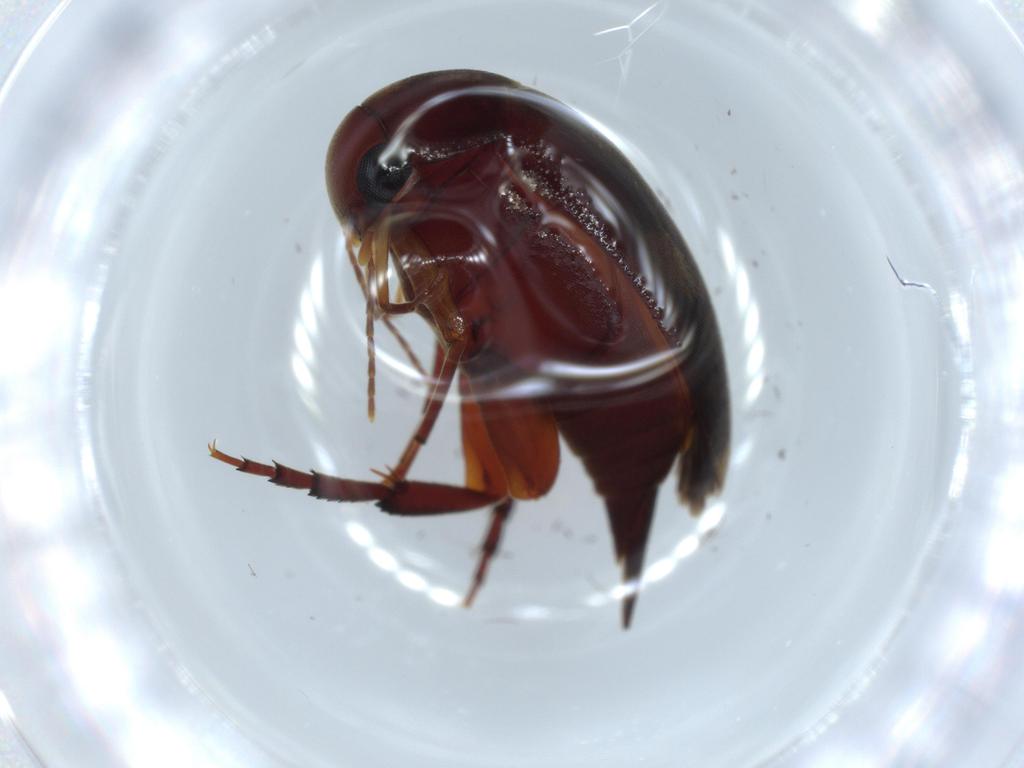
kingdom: Animalia
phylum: Arthropoda
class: Insecta
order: Coleoptera
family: Mordellidae
